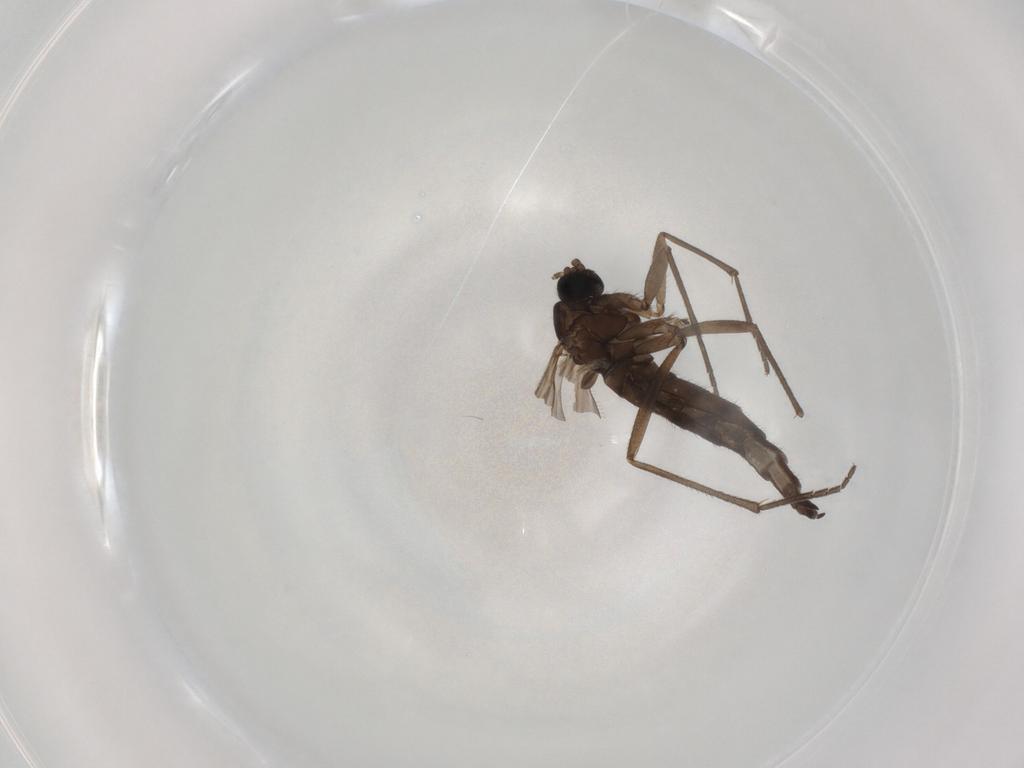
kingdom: Animalia
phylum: Arthropoda
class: Insecta
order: Diptera
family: Sciaridae
